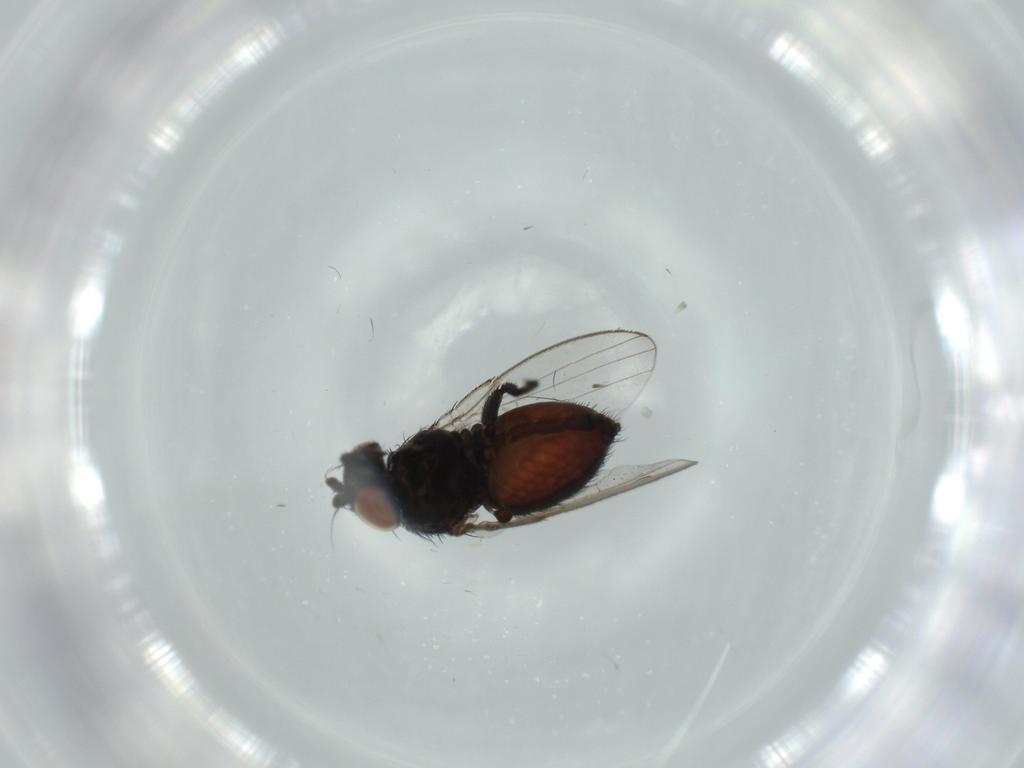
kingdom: Animalia
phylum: Arthropoda
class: Insecta
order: Diptera
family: Milichiidae
